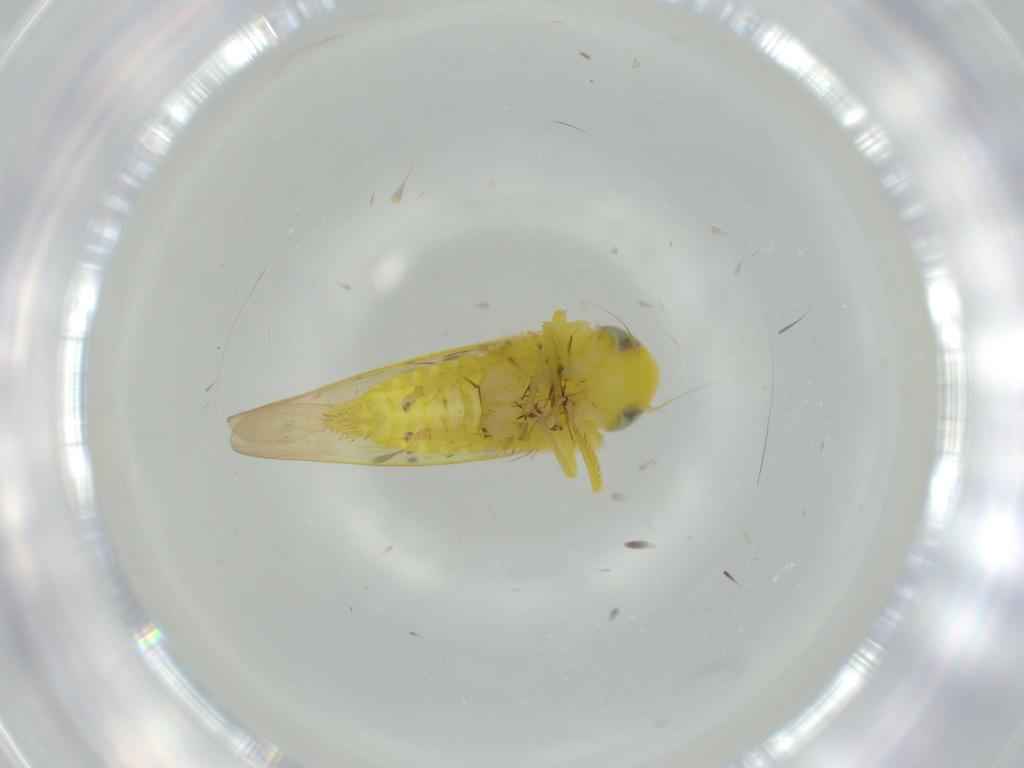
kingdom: Animalia
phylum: Arthropoda
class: Insecta
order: Hemiptera
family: Cicadellidae
